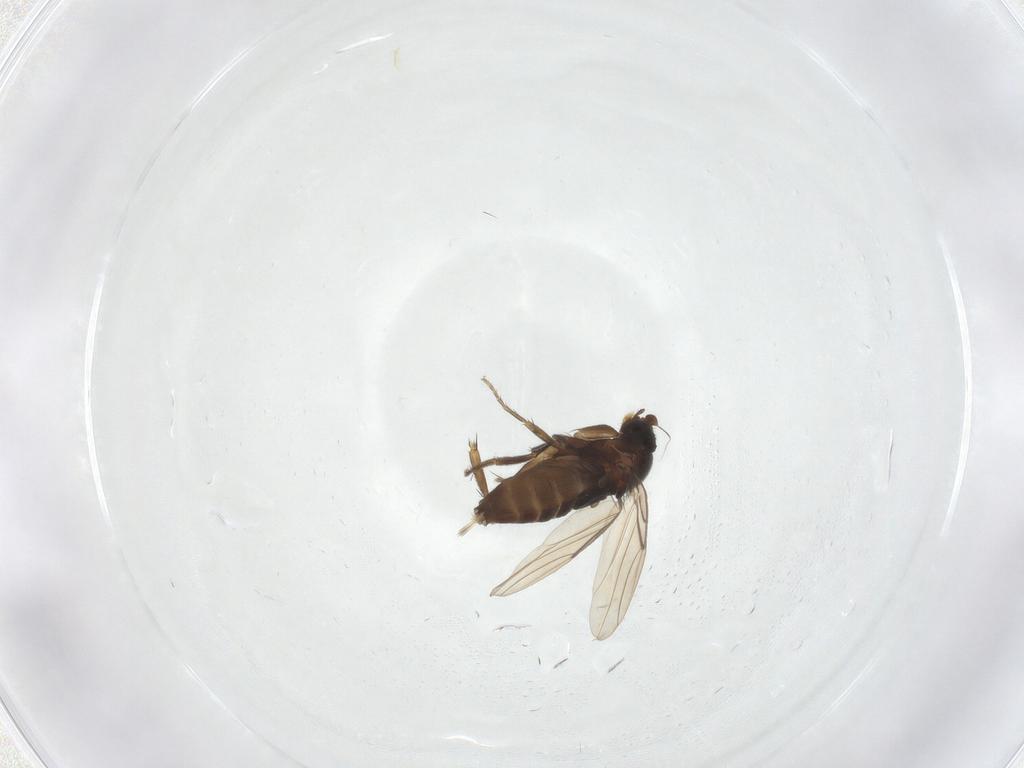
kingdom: Animalia
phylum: Arthropoda
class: Insecta
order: Diptera
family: Phoridae
